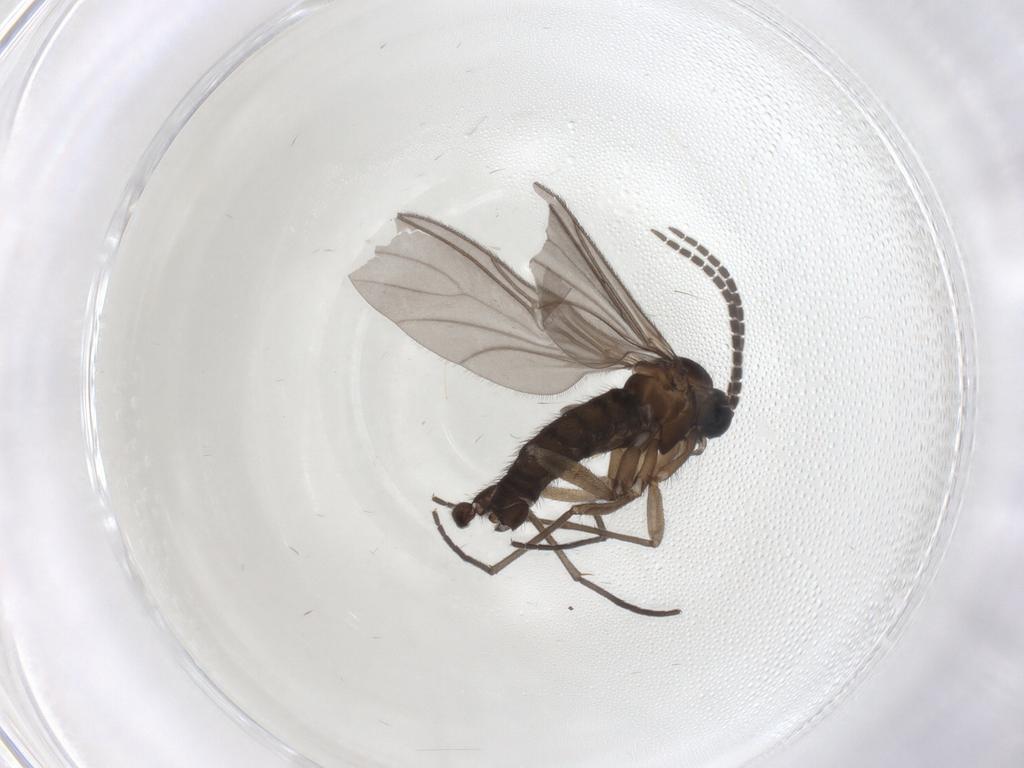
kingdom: Animalia
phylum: Arthropoda
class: Insecta
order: Diptera
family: Sciaridae
